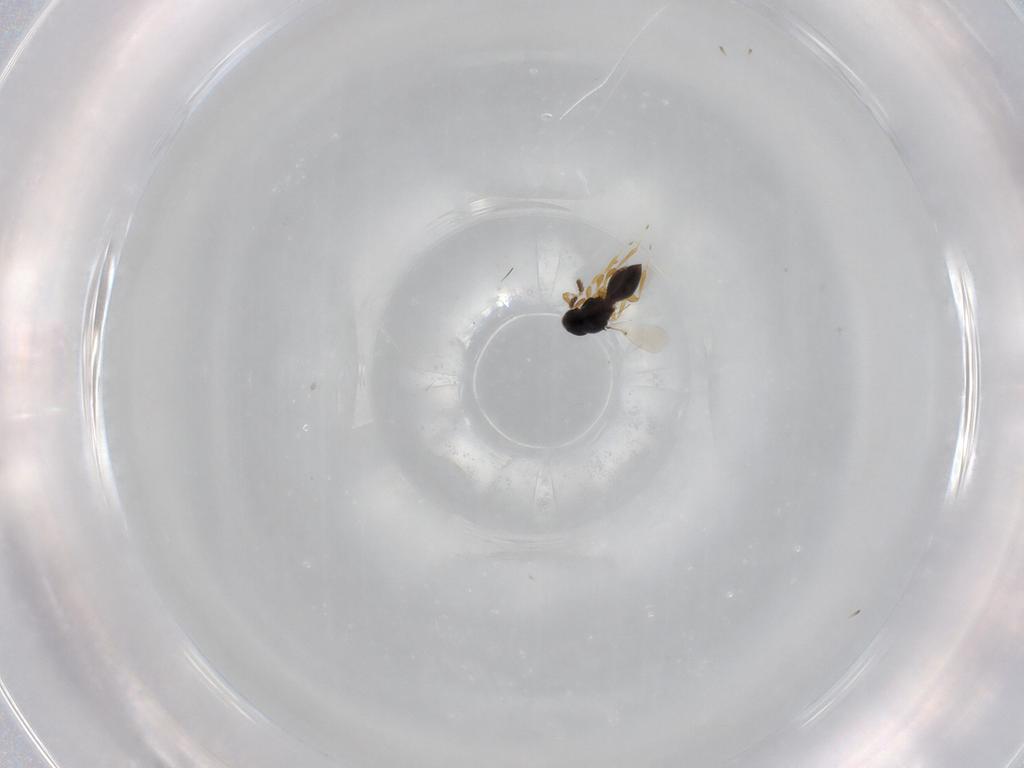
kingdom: Animalia
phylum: Arthropoda
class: Insecta
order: Hymenoptera
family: Platygastridae
